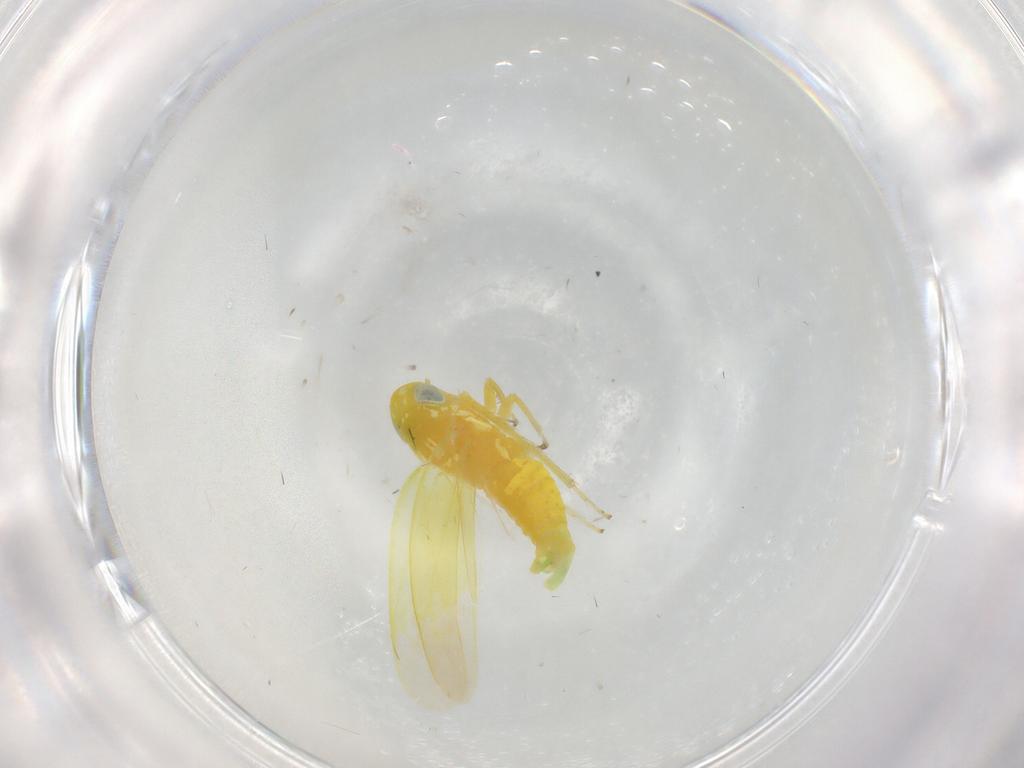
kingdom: Animalia
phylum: Arthropoda
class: Insecta
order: Hemiptera
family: Cicadellidae
